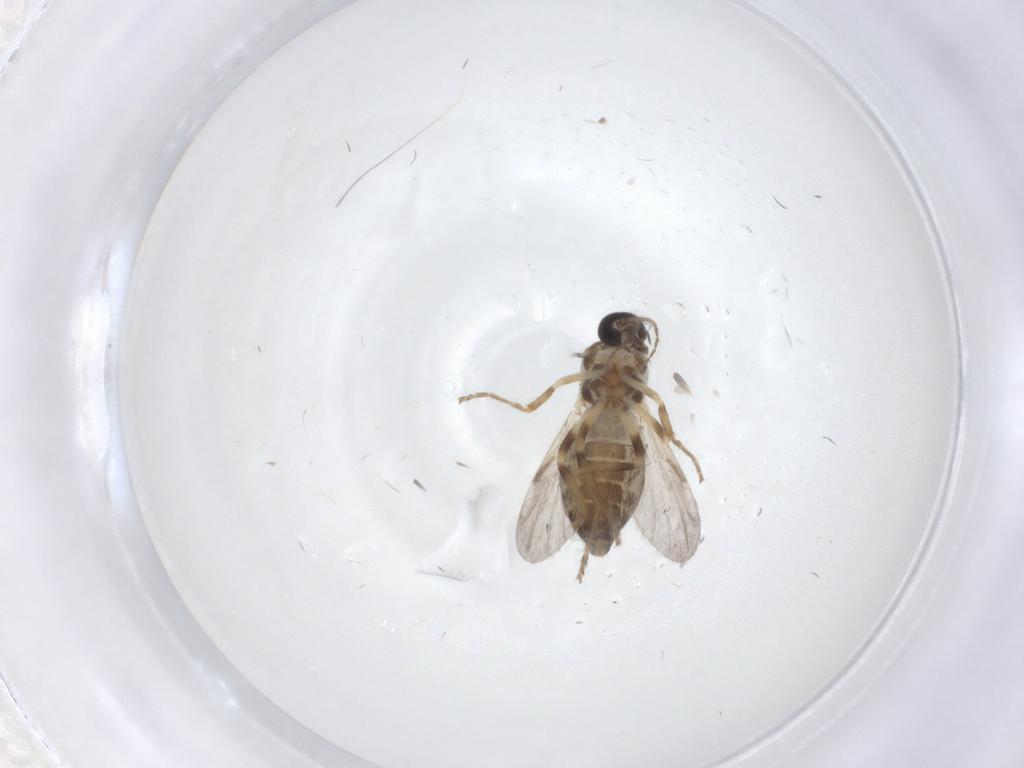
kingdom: Animalia
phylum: Arthropoda
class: Insecta
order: Diptera
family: Ceratopogonidae
